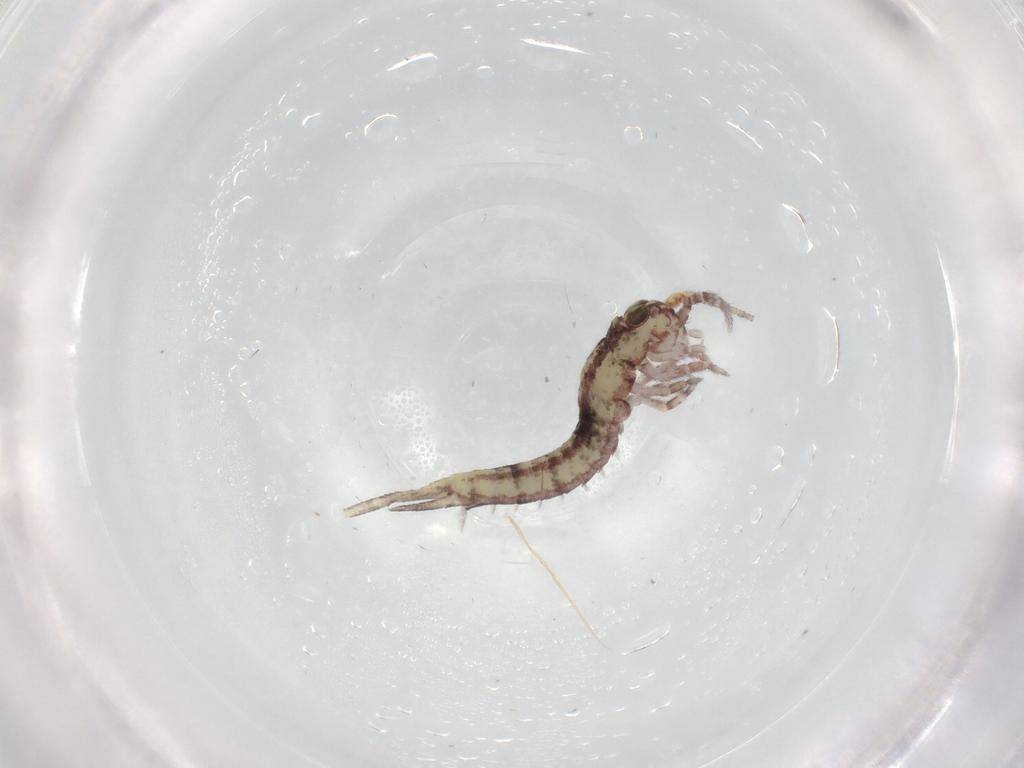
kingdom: Animalia
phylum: Arthropoda
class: Insecta
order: Archaeognatha
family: Machilidae
